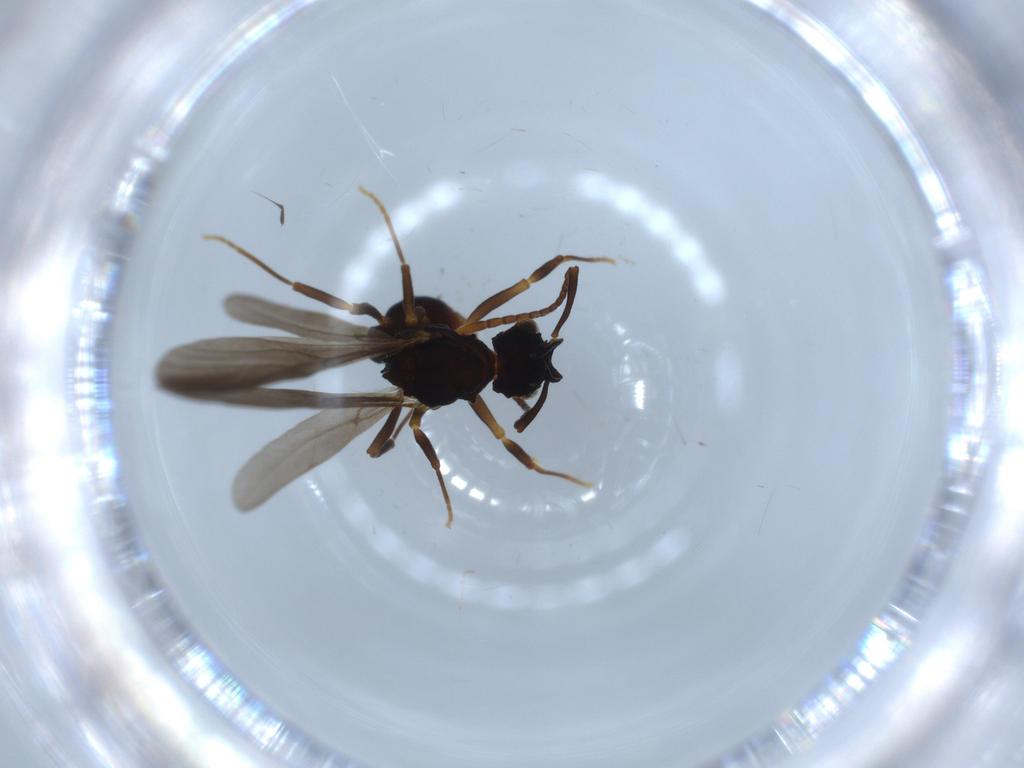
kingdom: Animalia
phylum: Arthropoda
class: Insecta
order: Hymenoptera
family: Formicidae
